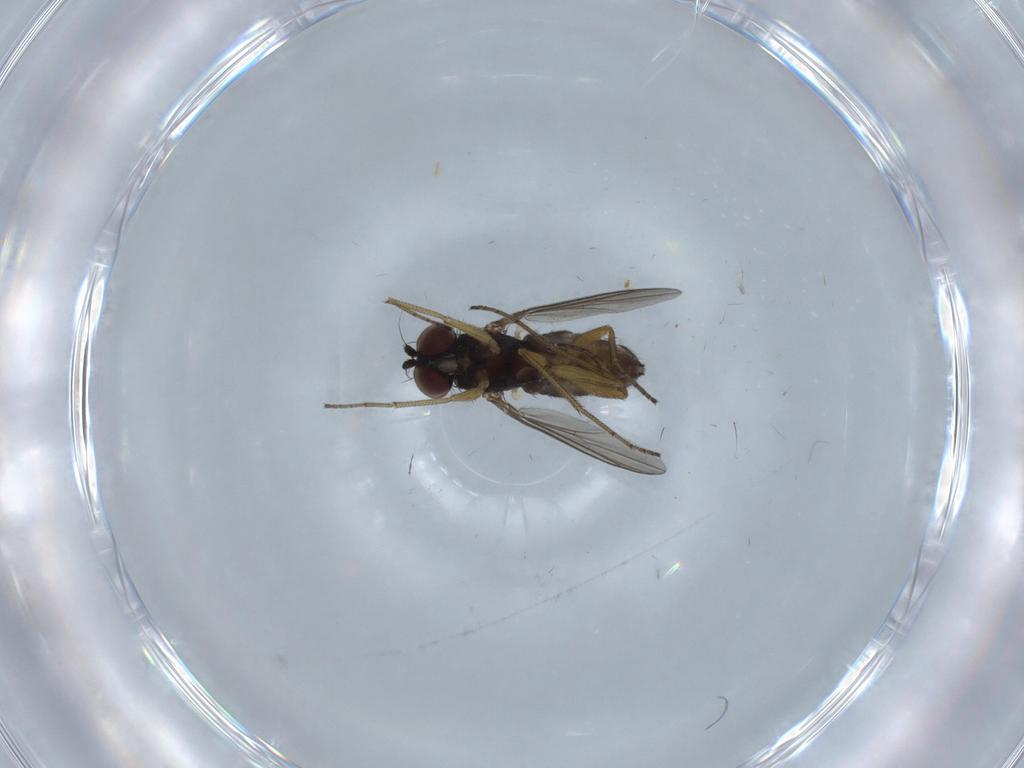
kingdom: Animalia
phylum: Arthropoda
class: Insecta
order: Diptera
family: Dolichopodidae
